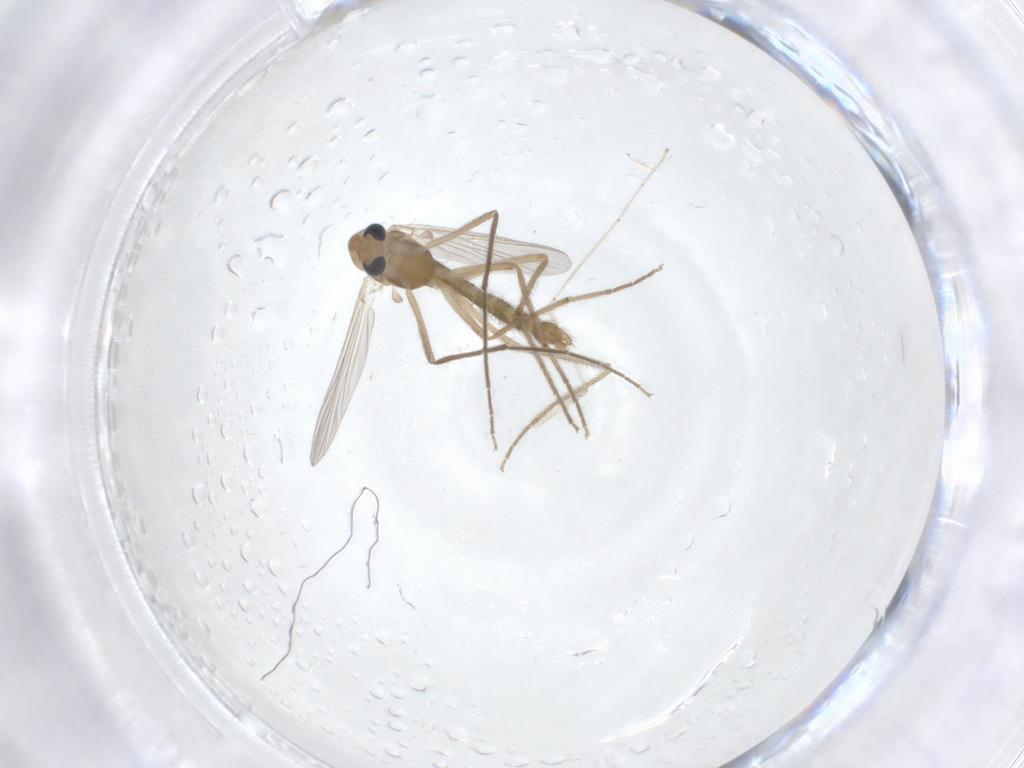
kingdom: Animalia
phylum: Arthropoda
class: Insecta
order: Diptera
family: Chironomidae
